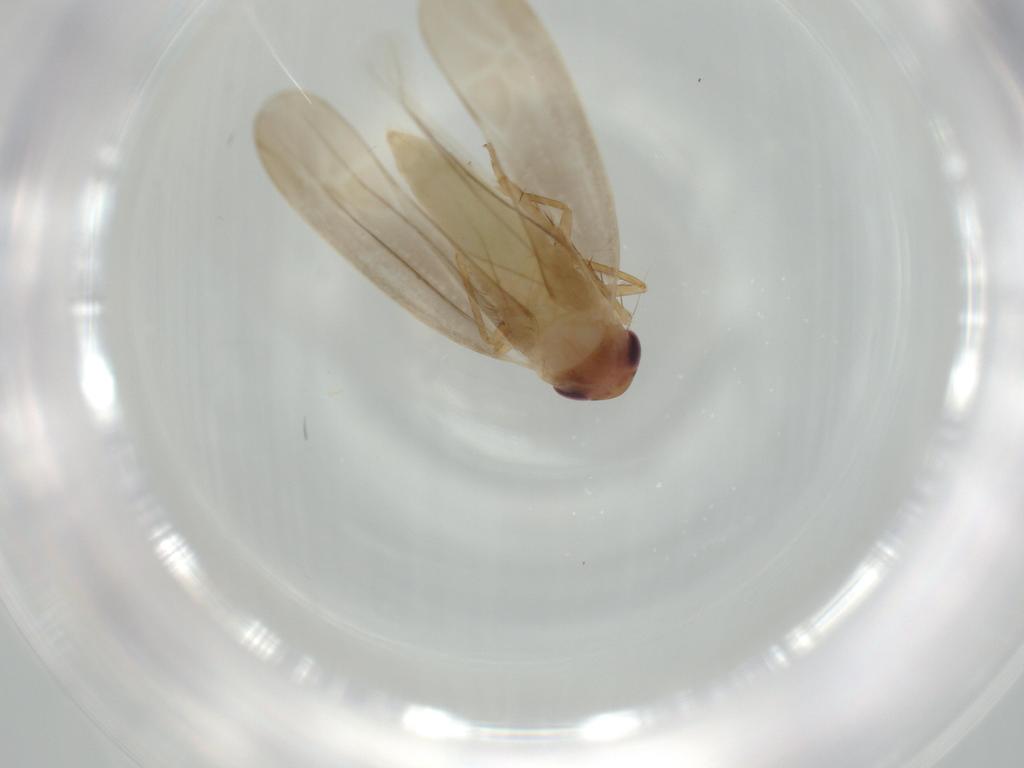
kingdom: Animalia
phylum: Arthropoda
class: Insecta
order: Hemiptera
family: Cicadellidae
